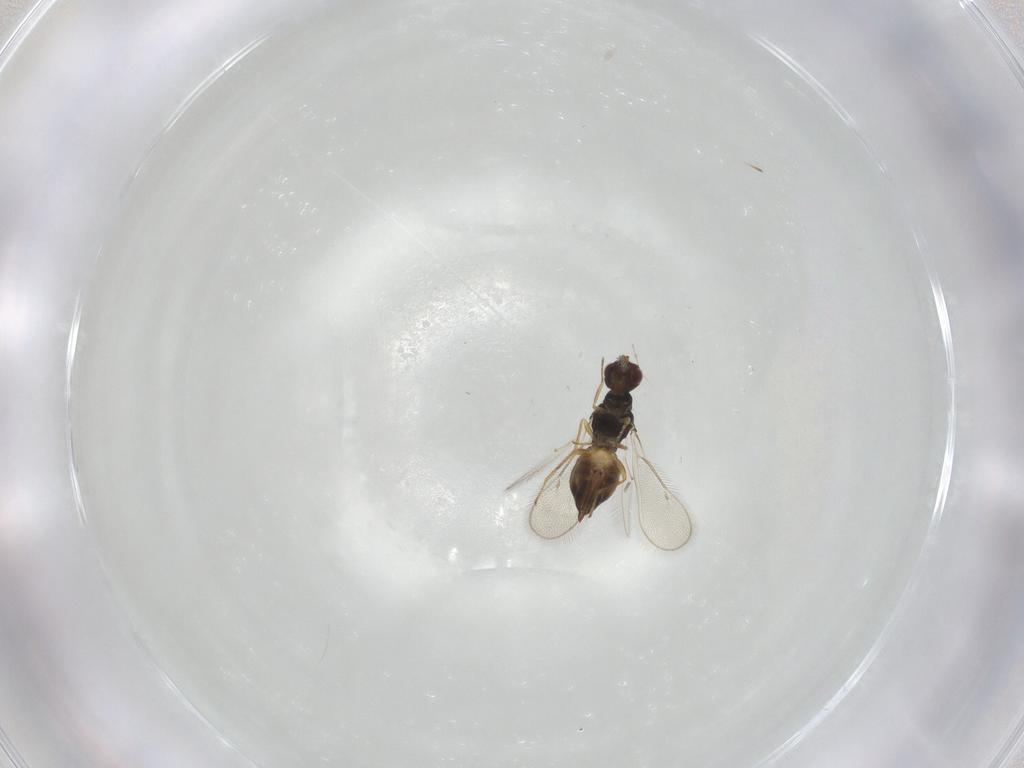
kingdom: Animalia
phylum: Arthropoda
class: Insecta
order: Hymenoptera
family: Eulophidae
